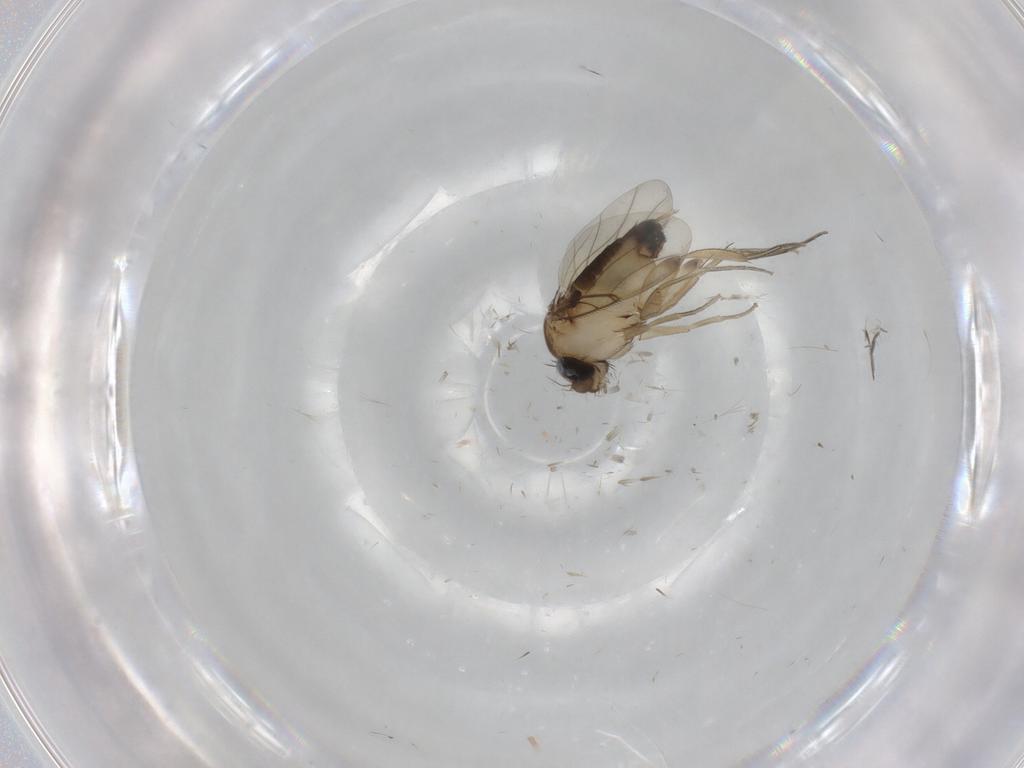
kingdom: Animalia
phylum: Arthropoda
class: Insecta
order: Diptera
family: Phoridae
